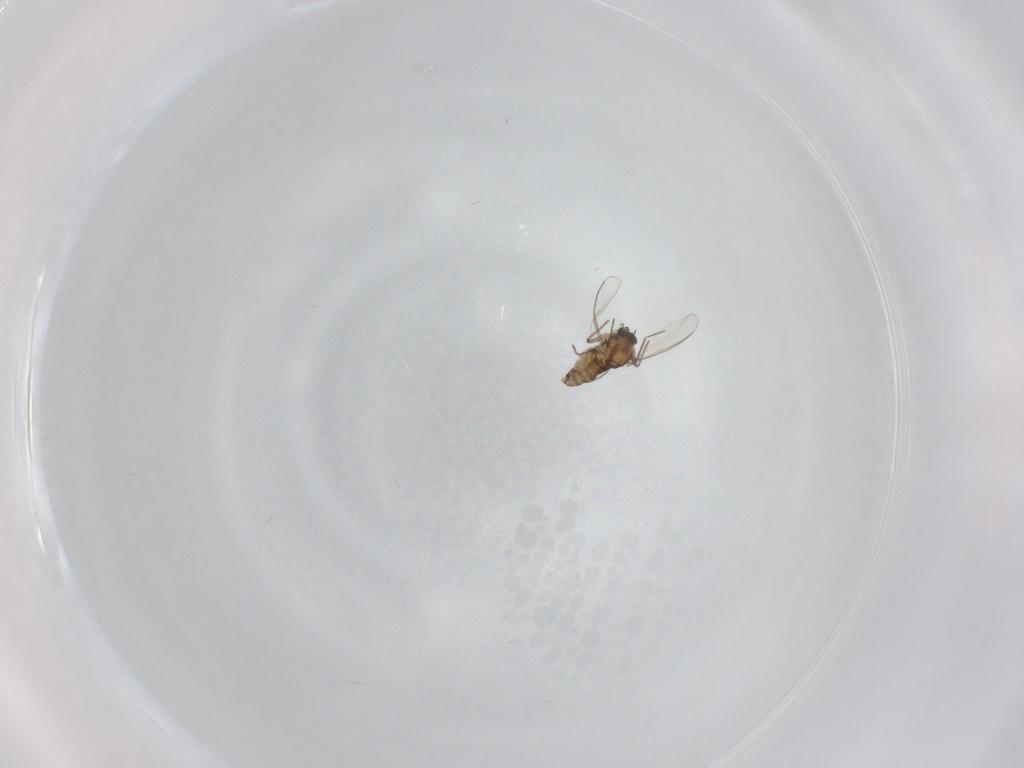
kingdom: Animalia
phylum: Arthropoda
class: Insecta
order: Diptera
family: Chironomidae
